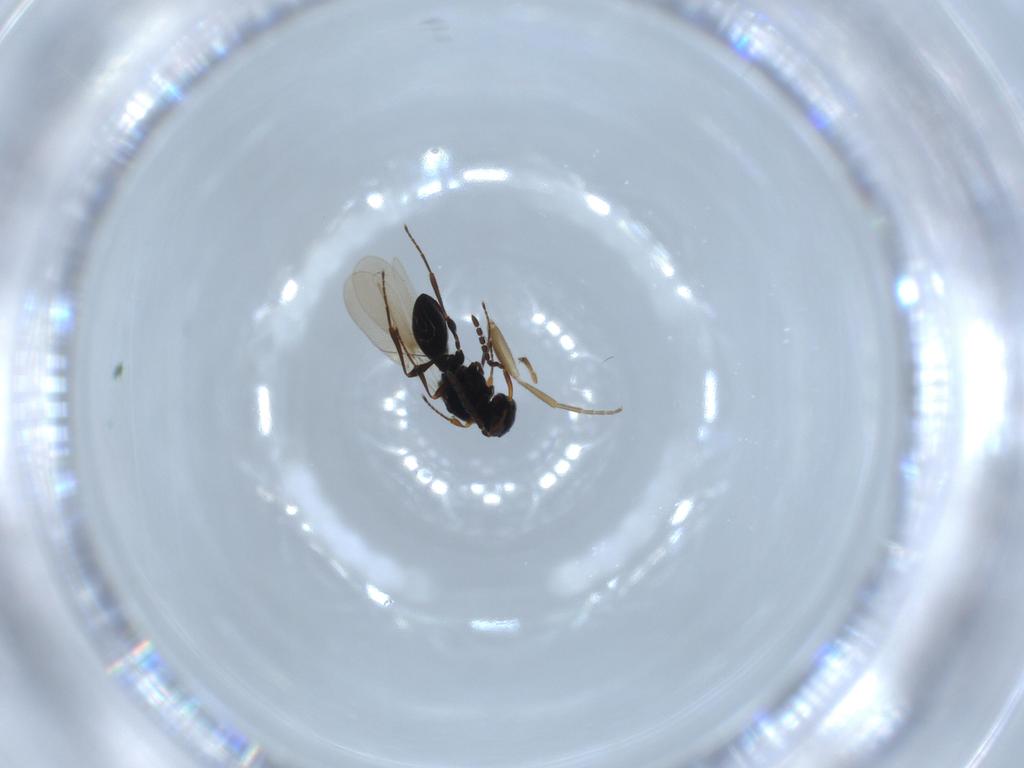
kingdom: Animalia
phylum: Arthropoda
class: Insecta
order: Hymenoptera
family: Platygastridae
